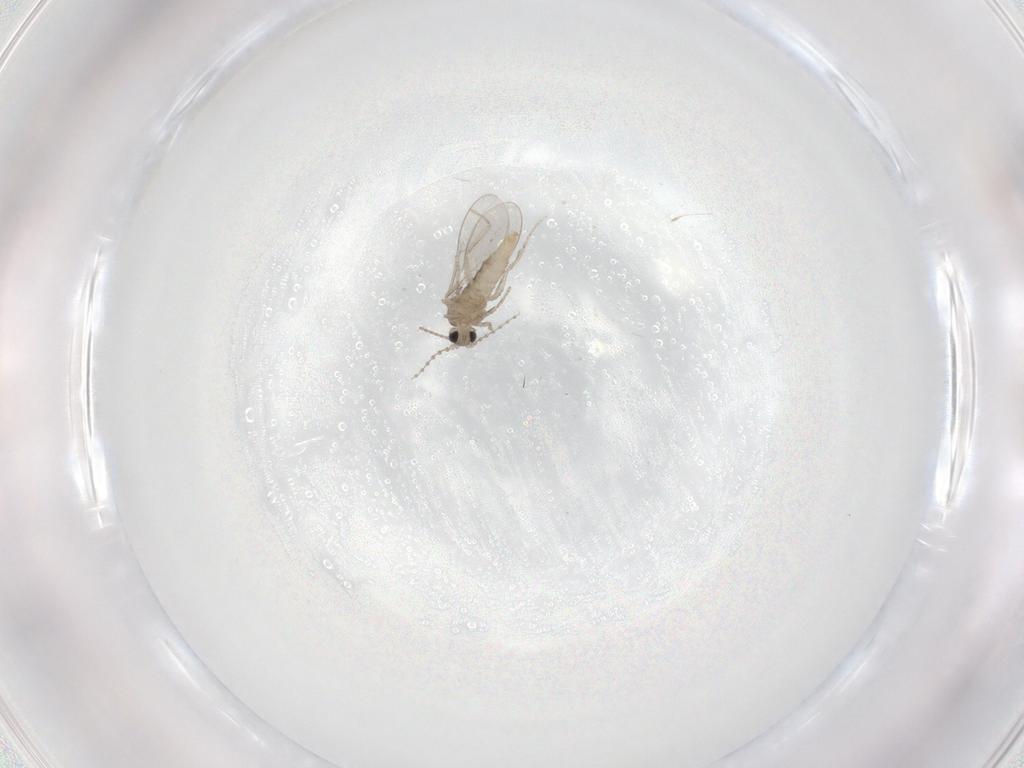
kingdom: Animalia
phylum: Arthropoda
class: Insecta
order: Diptera
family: Cecidomyiidae
